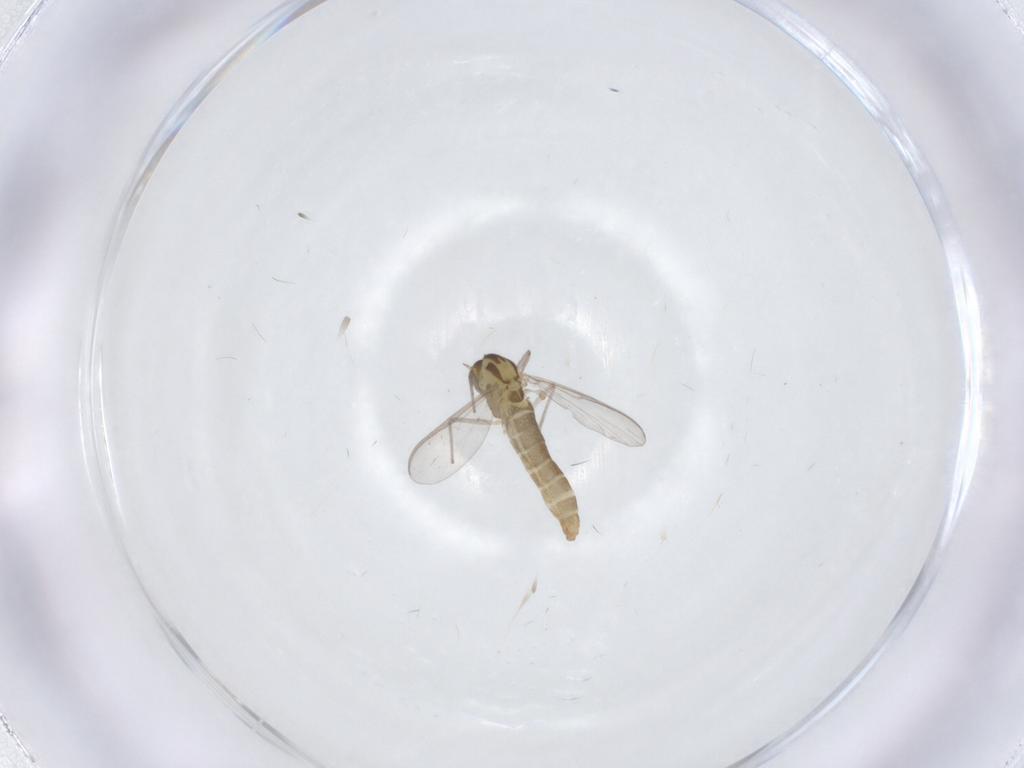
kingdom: Animalia
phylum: Arthropoda
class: Insecta
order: Diptera
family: Chironomidae
